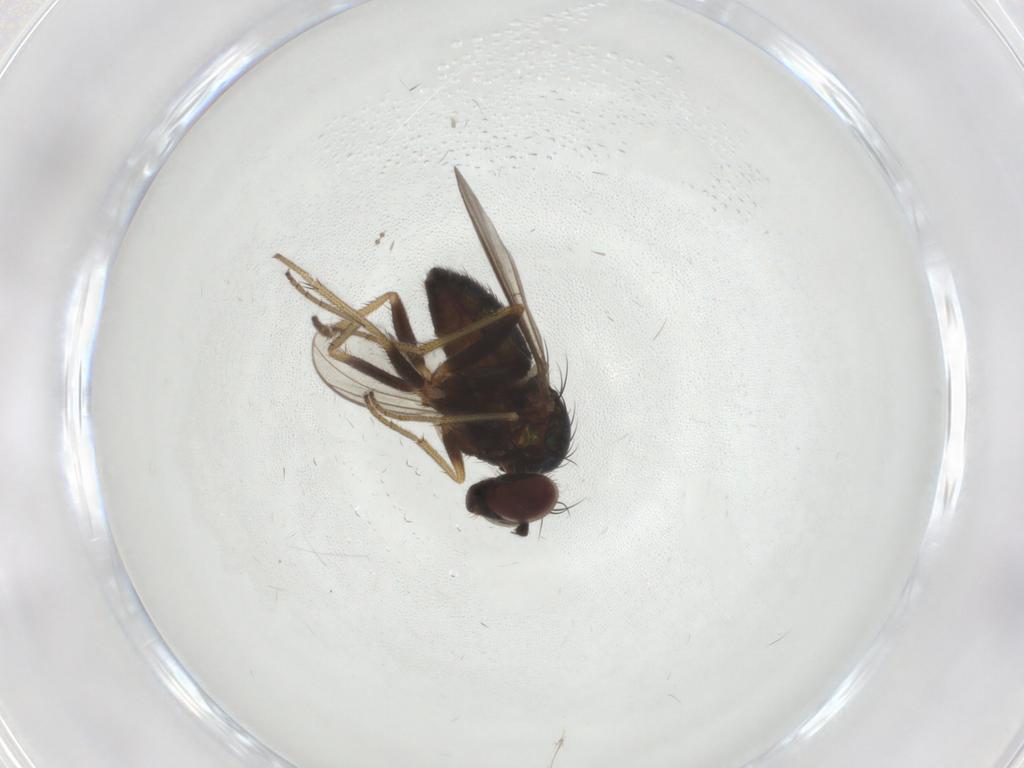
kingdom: Animalia
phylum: Arthropoda
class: Insecta
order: Diptera
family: Dolichopodidae
